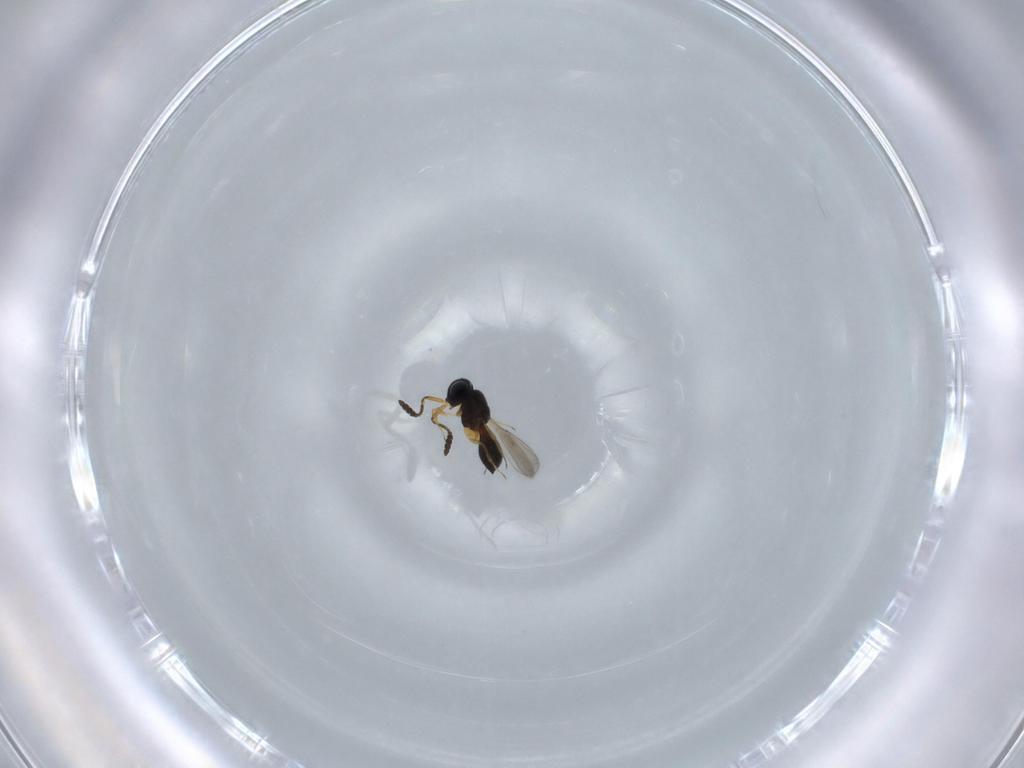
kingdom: Animalia
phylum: Arthropoda
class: Insecta
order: Hymenoptera
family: Scelionidae
